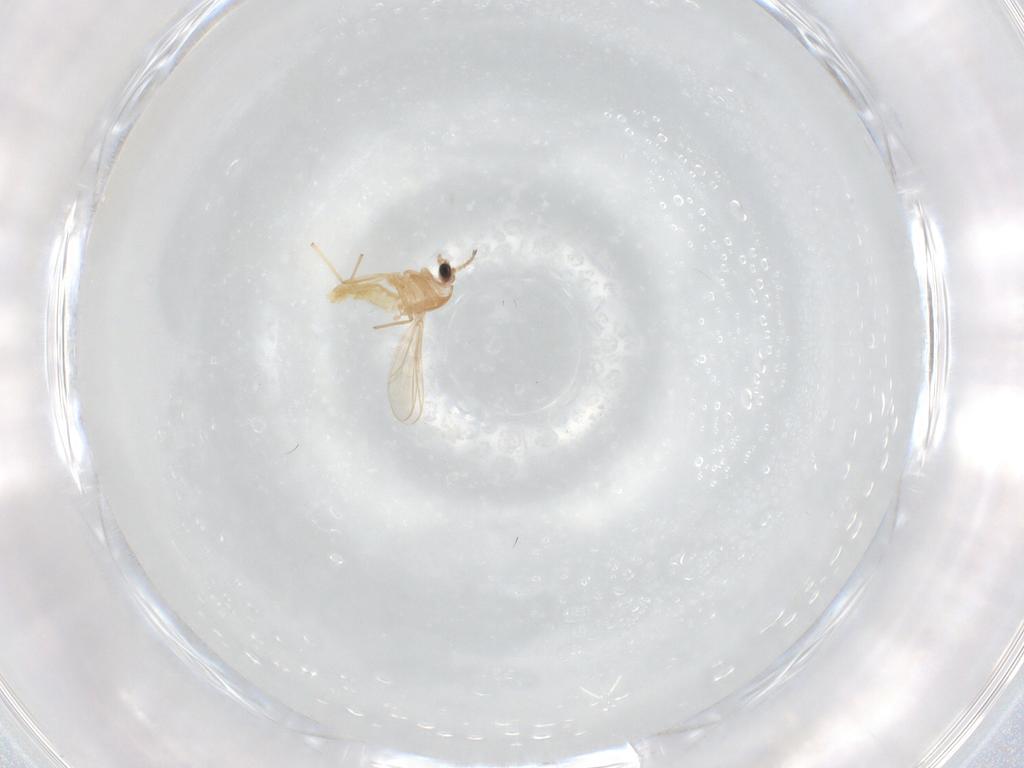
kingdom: Animalia
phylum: Arthropoda
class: Insecta
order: Diptera
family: Chironomidae
